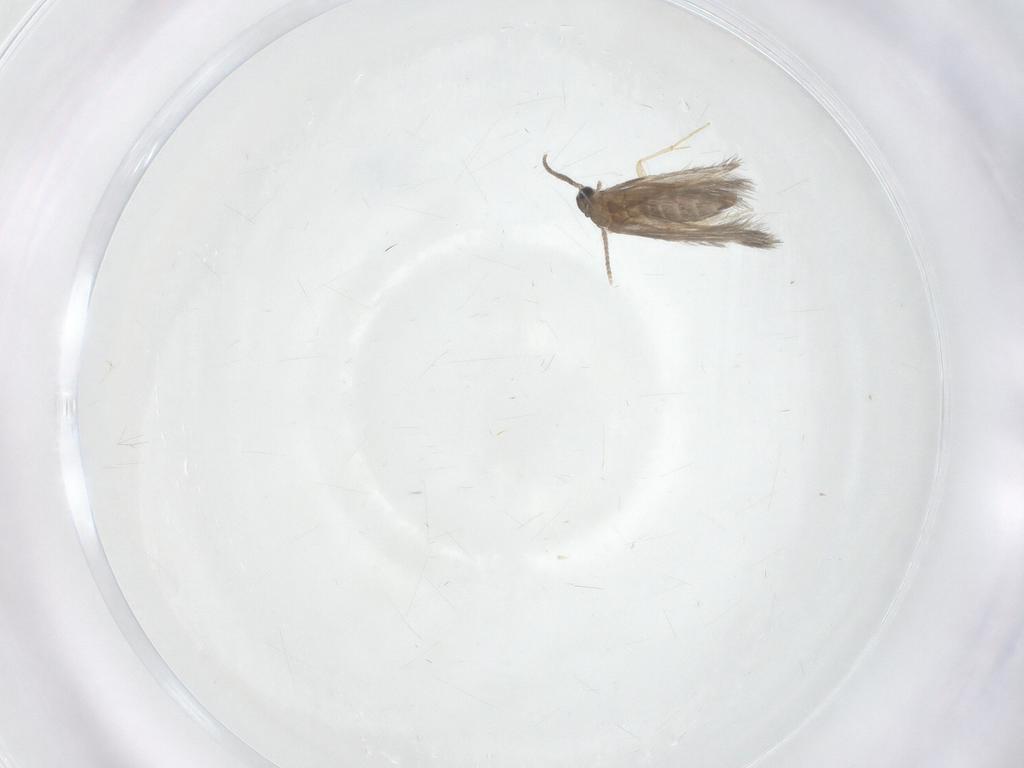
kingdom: Animalia
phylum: Arthropoda
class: Insecta
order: Trichoptera
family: Hydroptilidae
